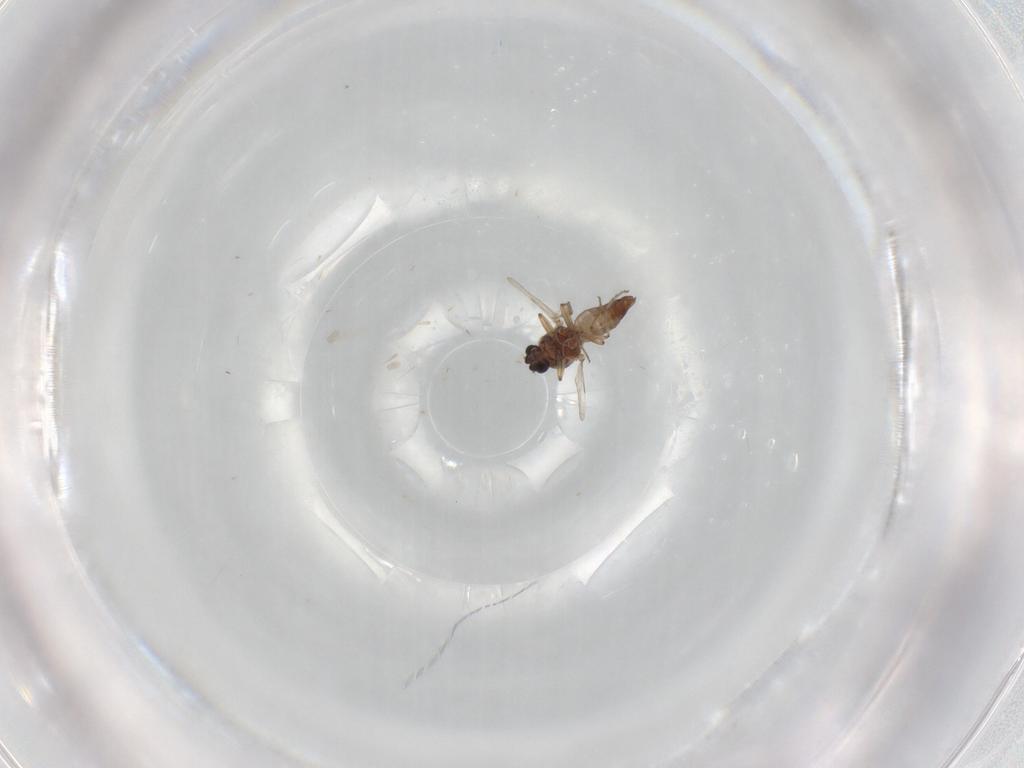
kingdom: Animalia
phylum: Arthropoda
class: Insecta
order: Diptera
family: Ceratopogonidae
